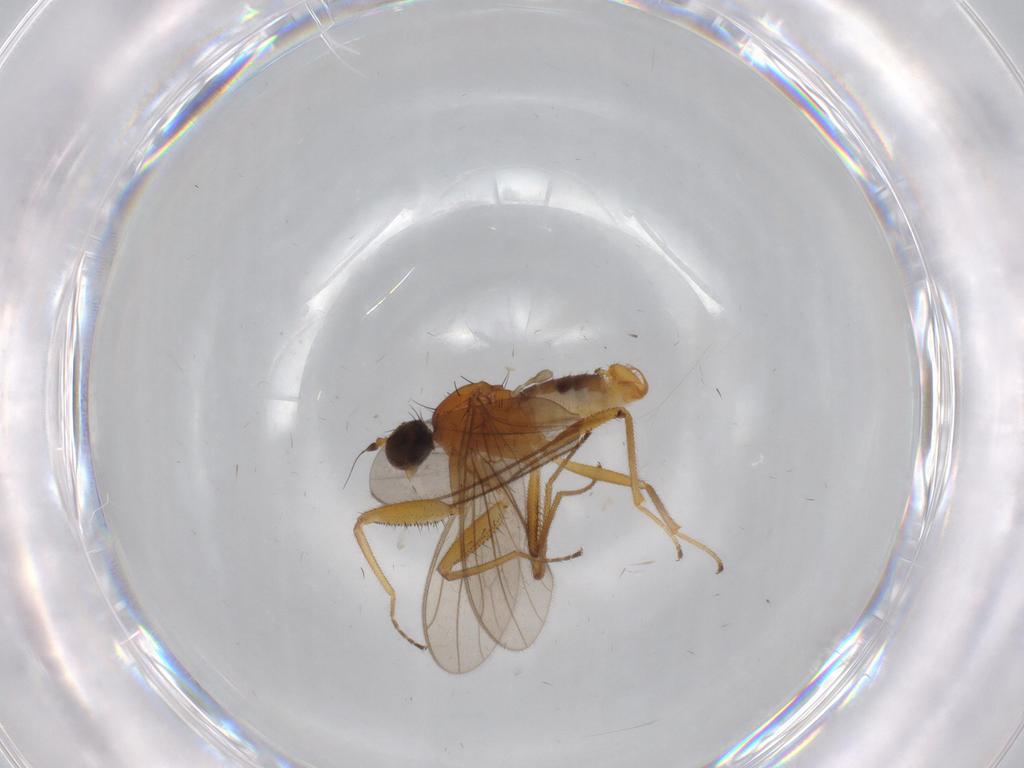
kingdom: Animalia
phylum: Arthropoda
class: Insecta
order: Diptera
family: Empididae
